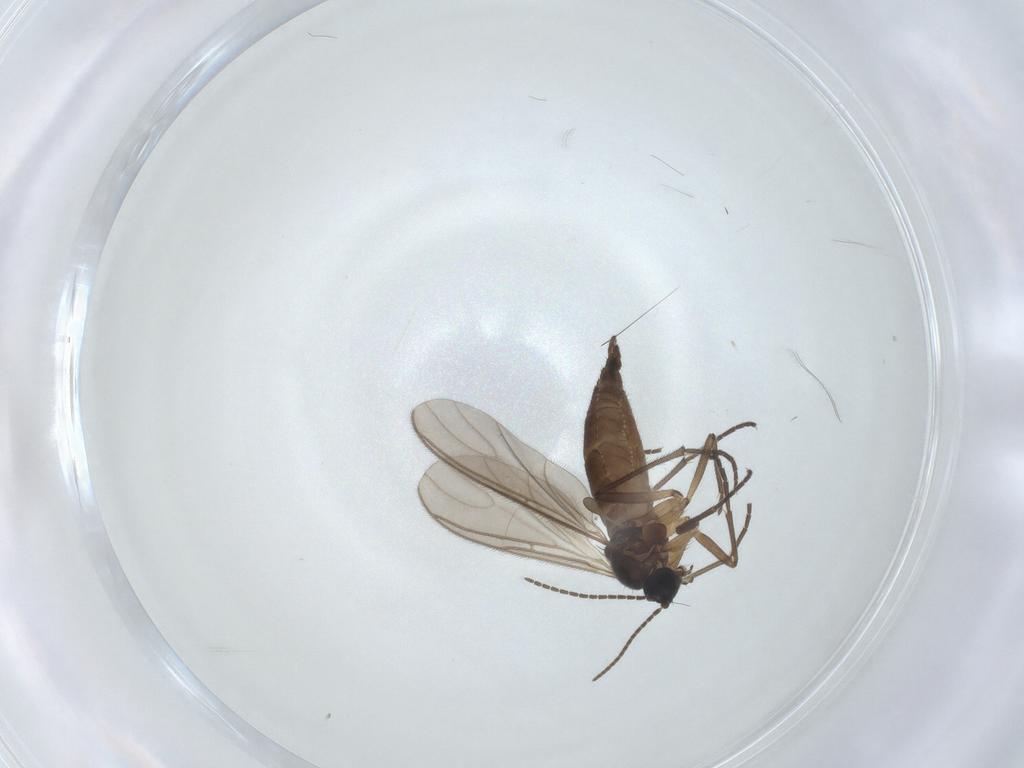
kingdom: Animalia
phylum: Arthropoda
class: Insecta
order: Diptera
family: Sciaridae
